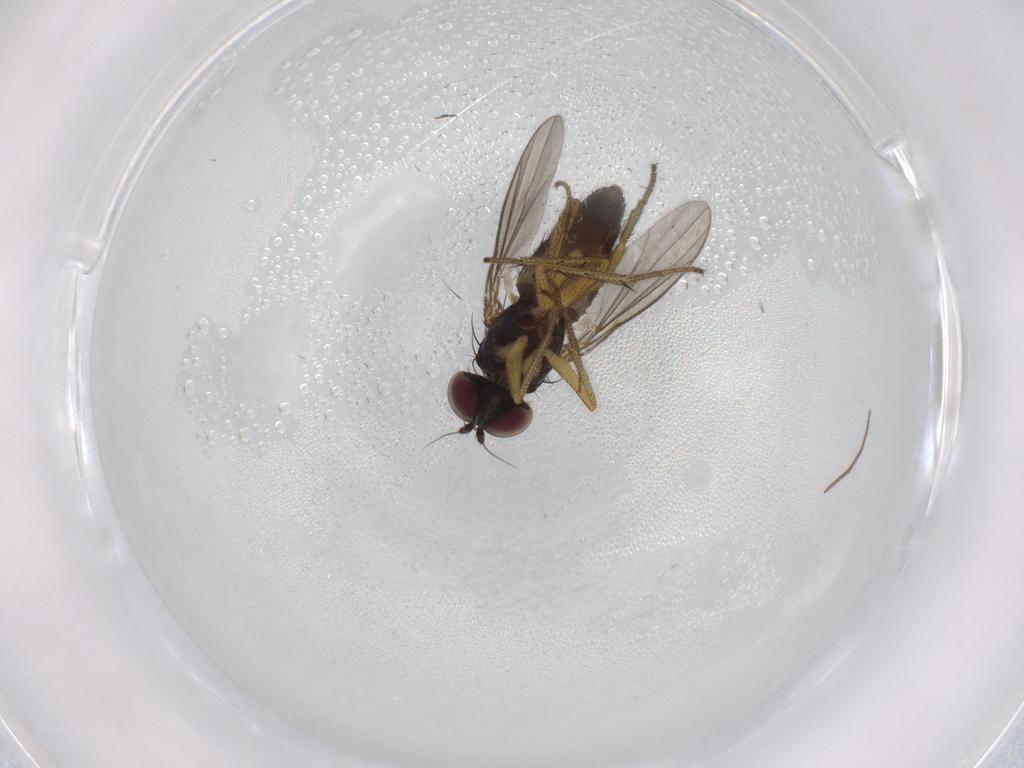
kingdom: Animalia
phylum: Arthropoda
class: Insecta
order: Diptera
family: Dolichopodidae
